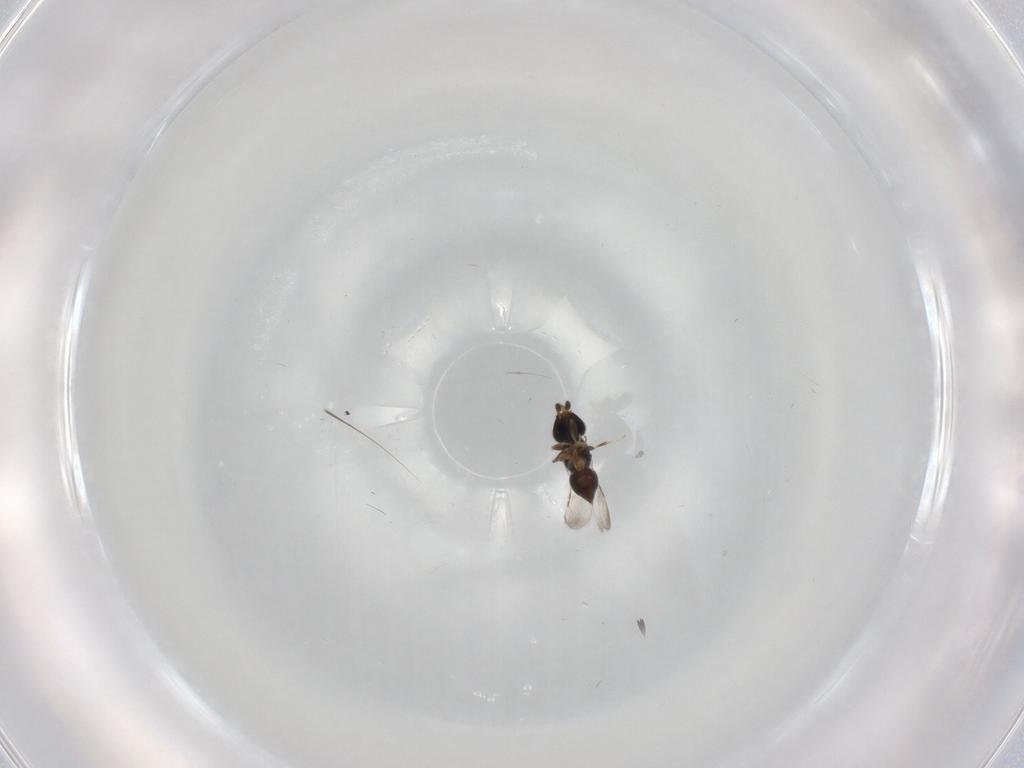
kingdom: Animalia
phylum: Arthropoda
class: Insecta
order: Hymenoptera
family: Ceraphronidae
